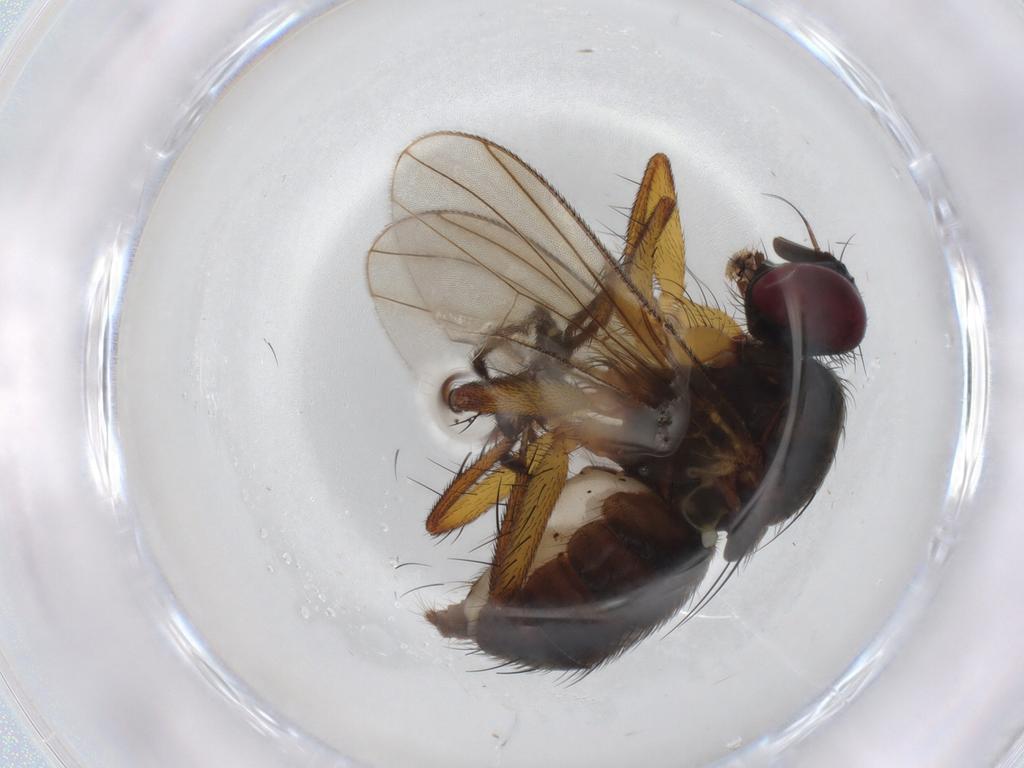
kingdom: Animalia
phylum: Arthropoda
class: Insecta
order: Diptera
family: Muscidae
